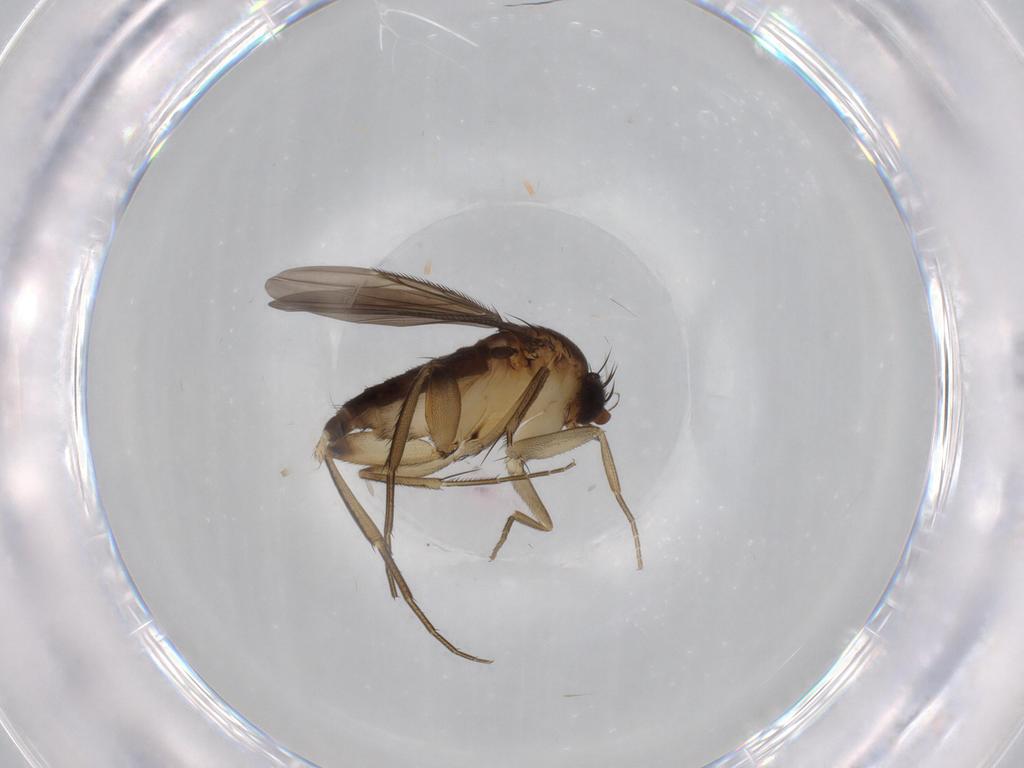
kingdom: Animalia
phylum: Arthropoda
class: Insecta
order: Diptera
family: Phoridae
